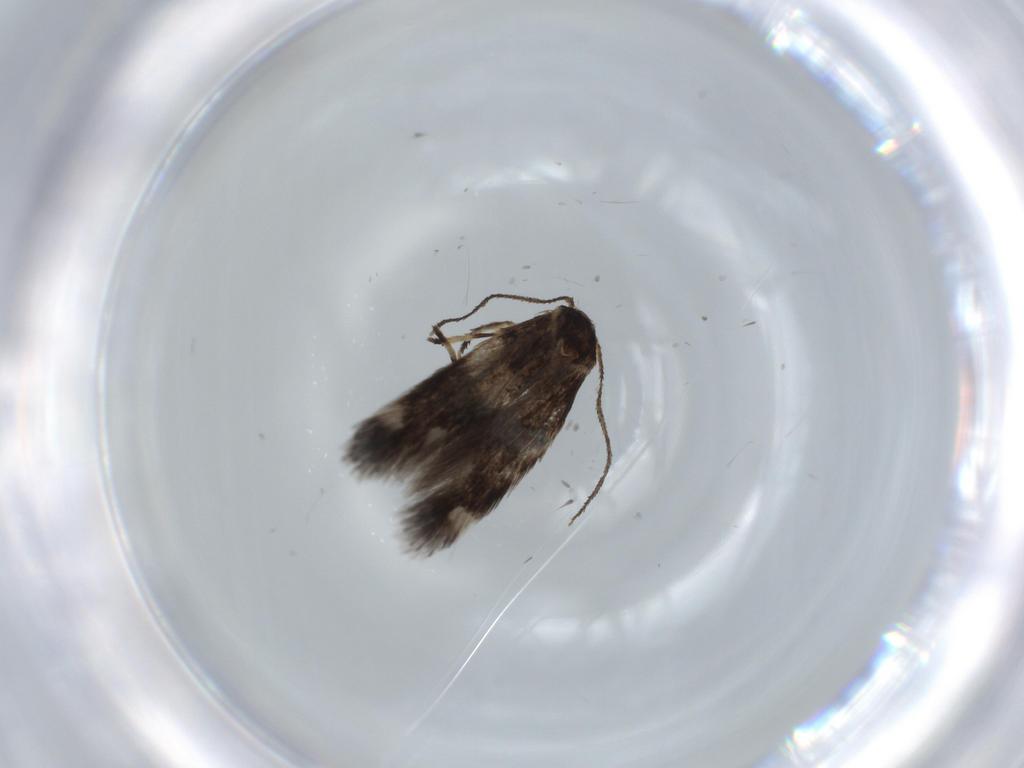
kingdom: Animalia
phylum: Arthropoda
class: Insecta
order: Lepidoptera
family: Cosmopterigidae
